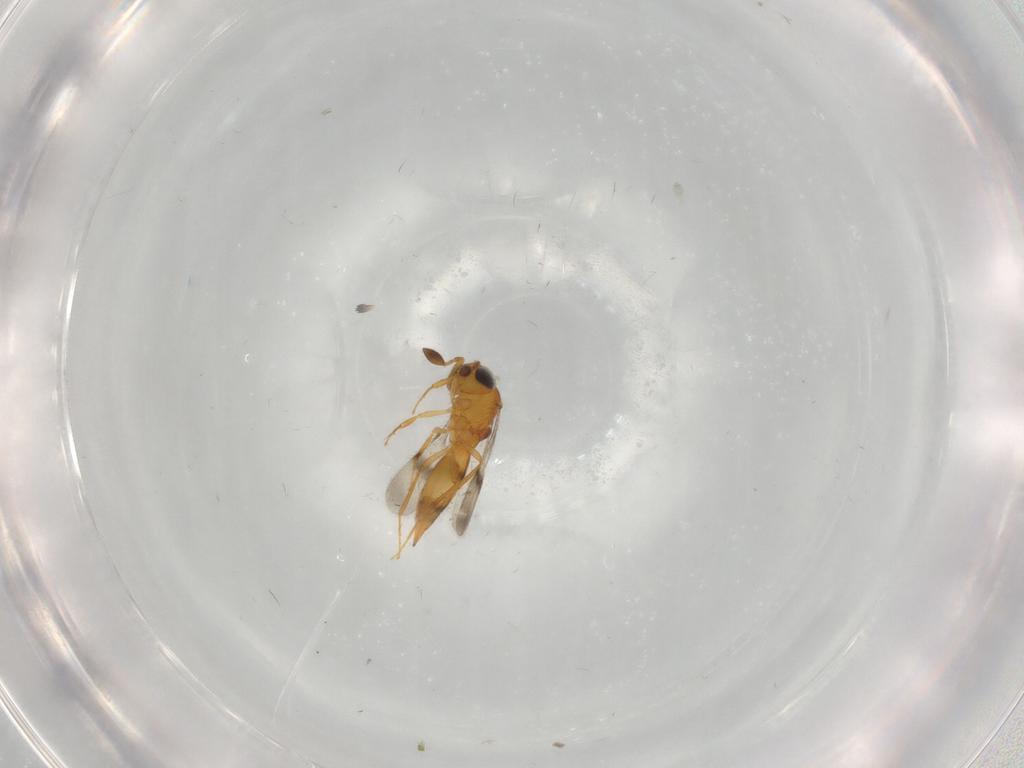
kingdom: Animalia
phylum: Arthropoda
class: Insecta
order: Hymenoptera
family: Scelionidae
